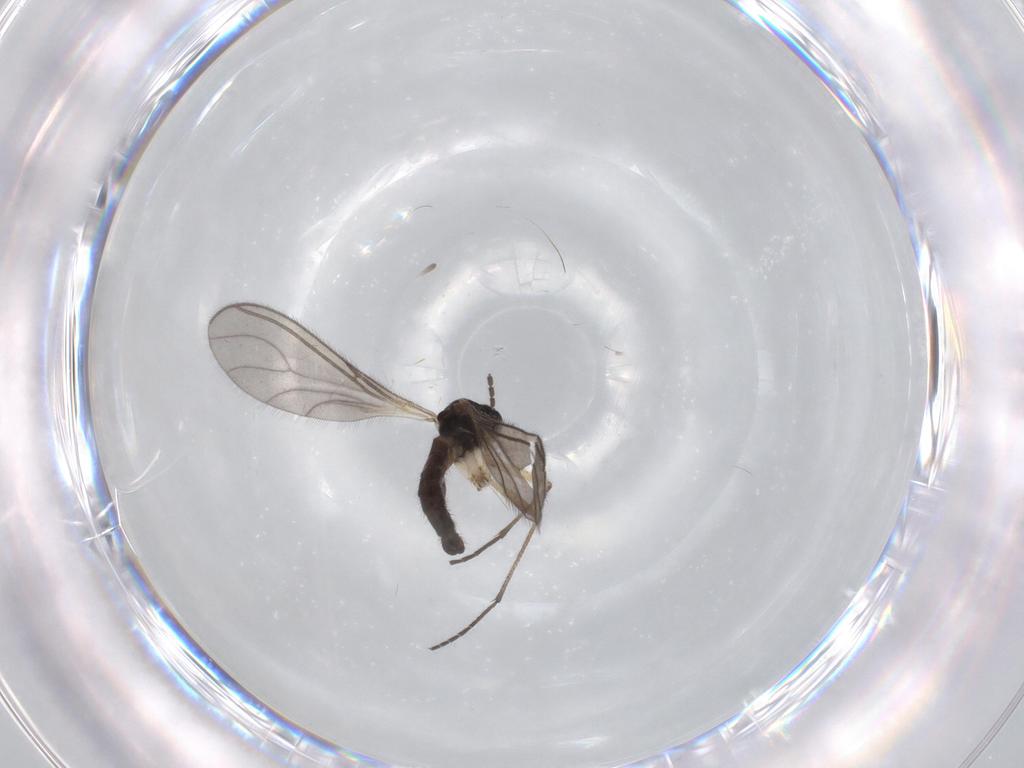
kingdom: Animalia
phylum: Arthropoda
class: Insecta
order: Diptera
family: Sciaridae
